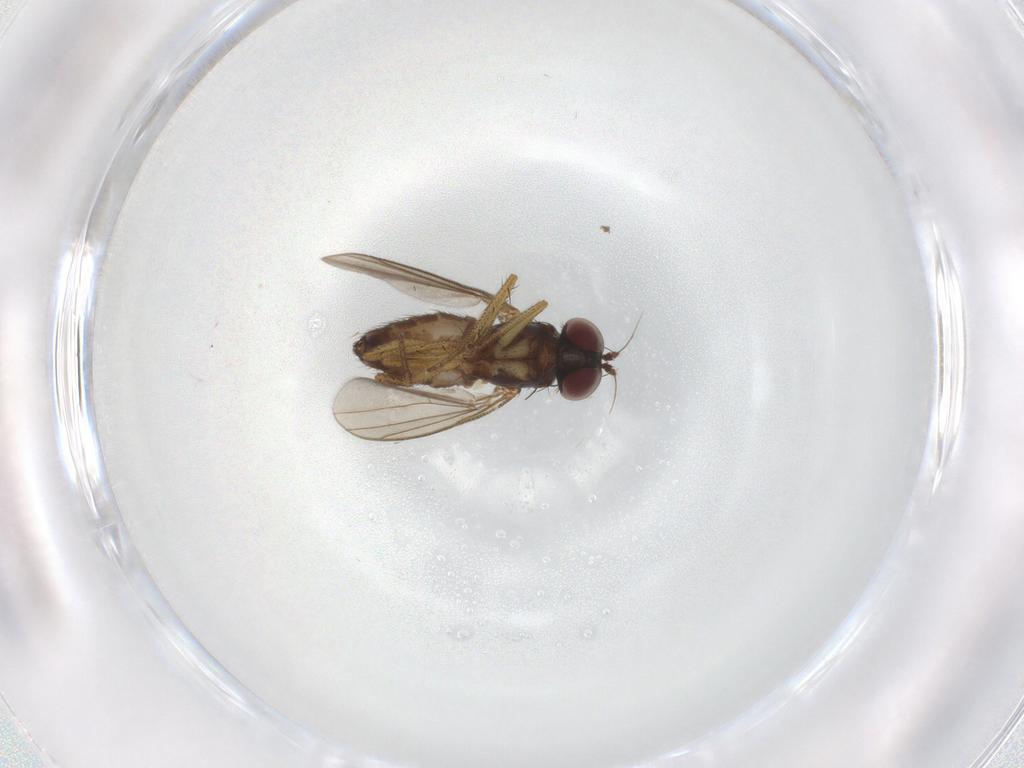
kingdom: Animalia
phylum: Arthropoda
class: Insecta
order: Diptera
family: Dolichopodidae
